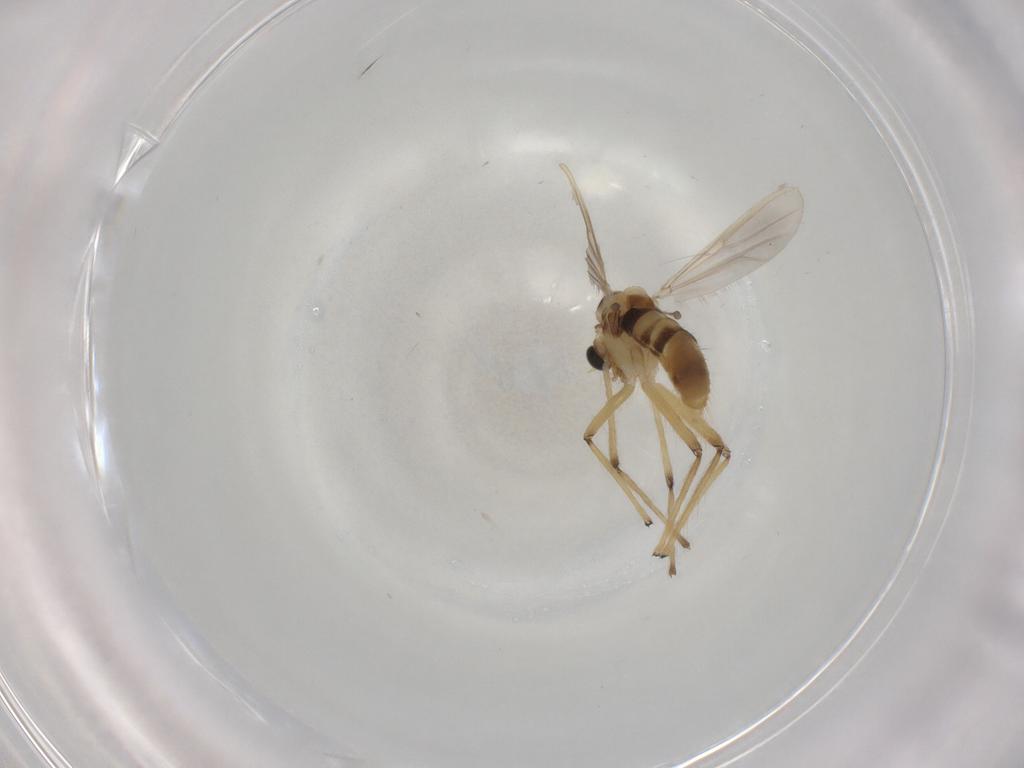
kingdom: Animalia
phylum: Arthropoda
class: Insecta
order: Diptera
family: Chironomidae
